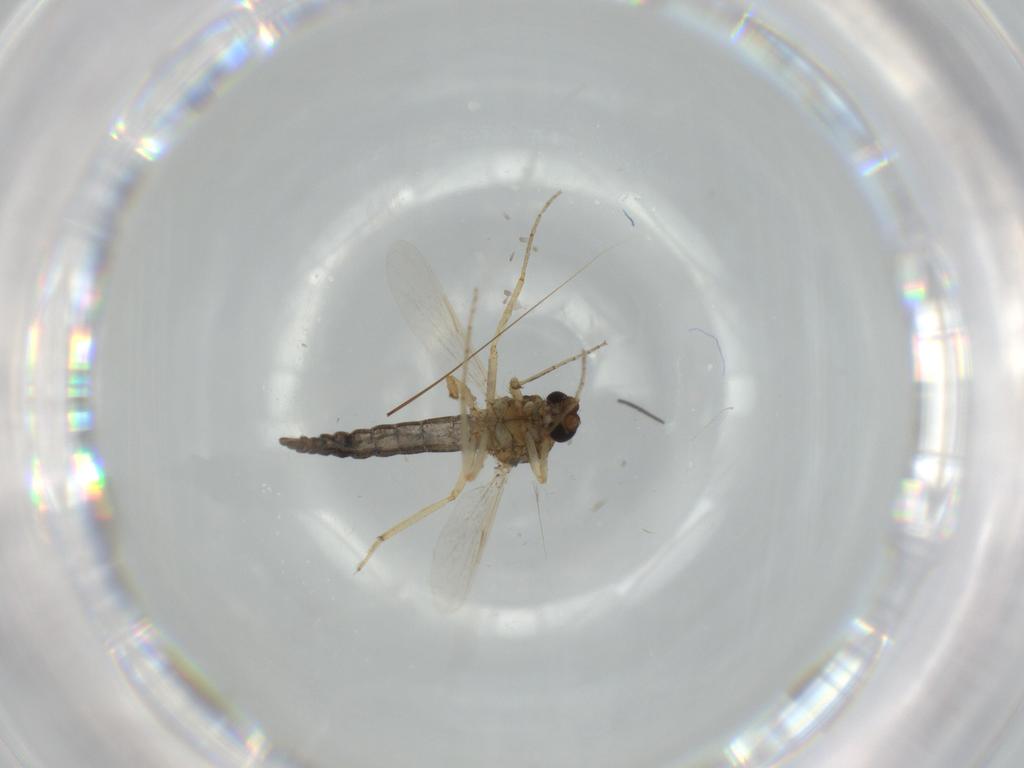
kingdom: Animalia
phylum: Arthropoda
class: Insecta
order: Diptera
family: Ceratopogonidae
